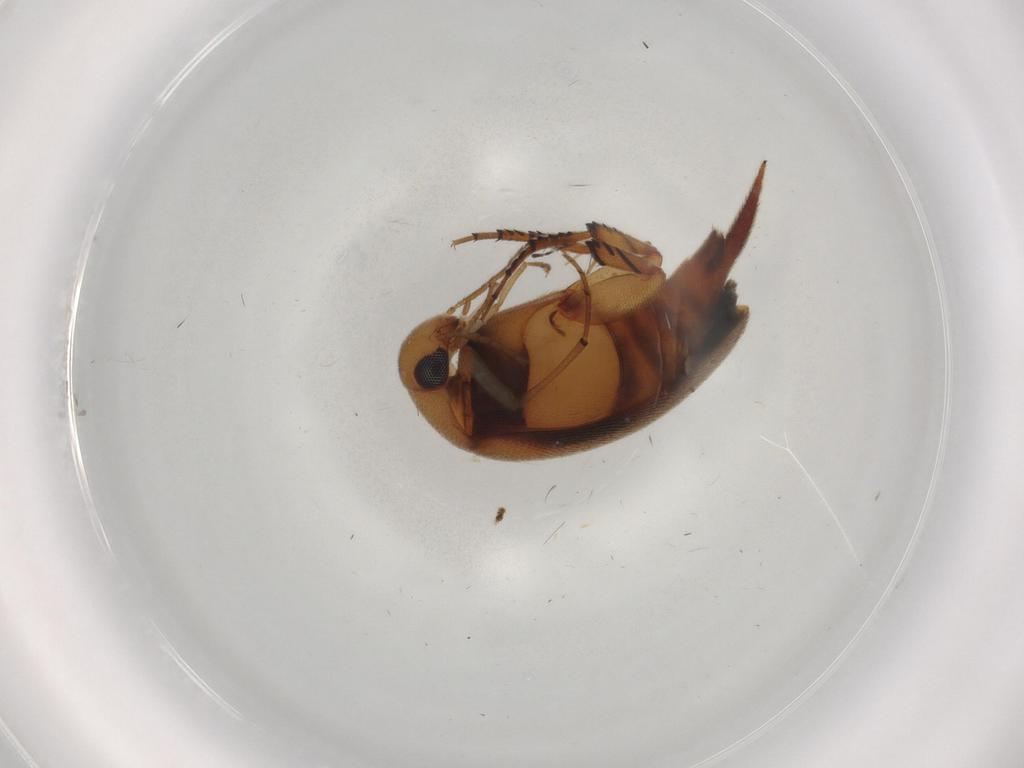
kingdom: Animalia
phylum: Arthropoda
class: Insecta
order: Coleoptera
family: Mordellidae
